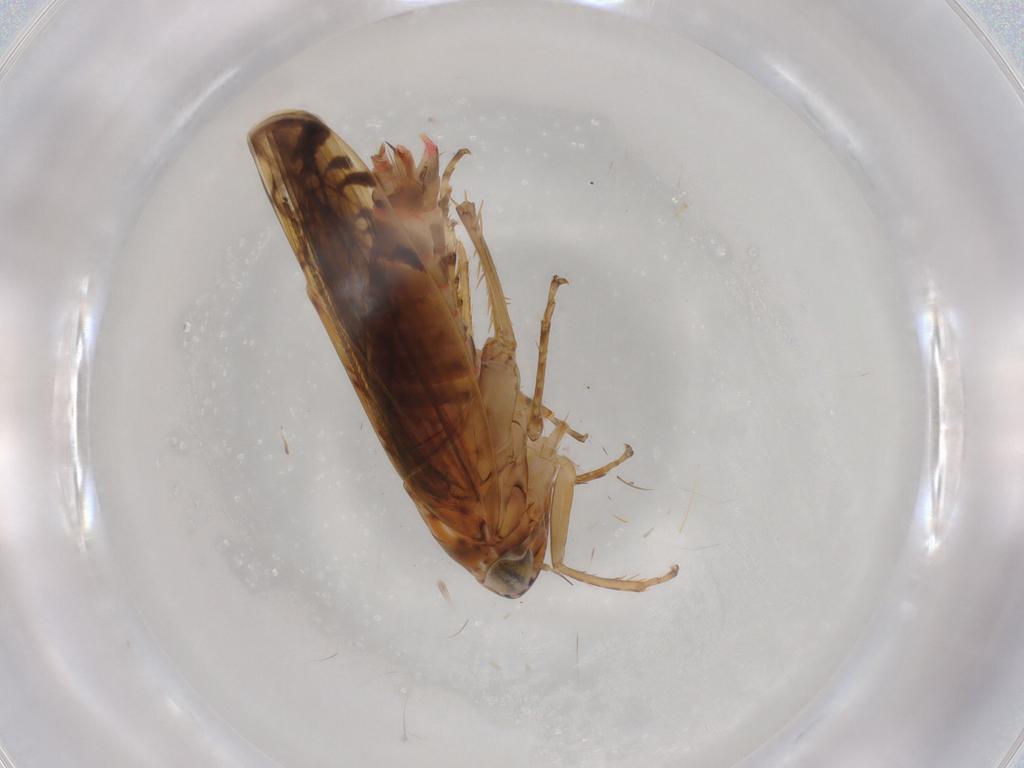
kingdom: Animalia
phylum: Arthropoda
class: Insecta
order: Hemiptera
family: Cicadellidae
